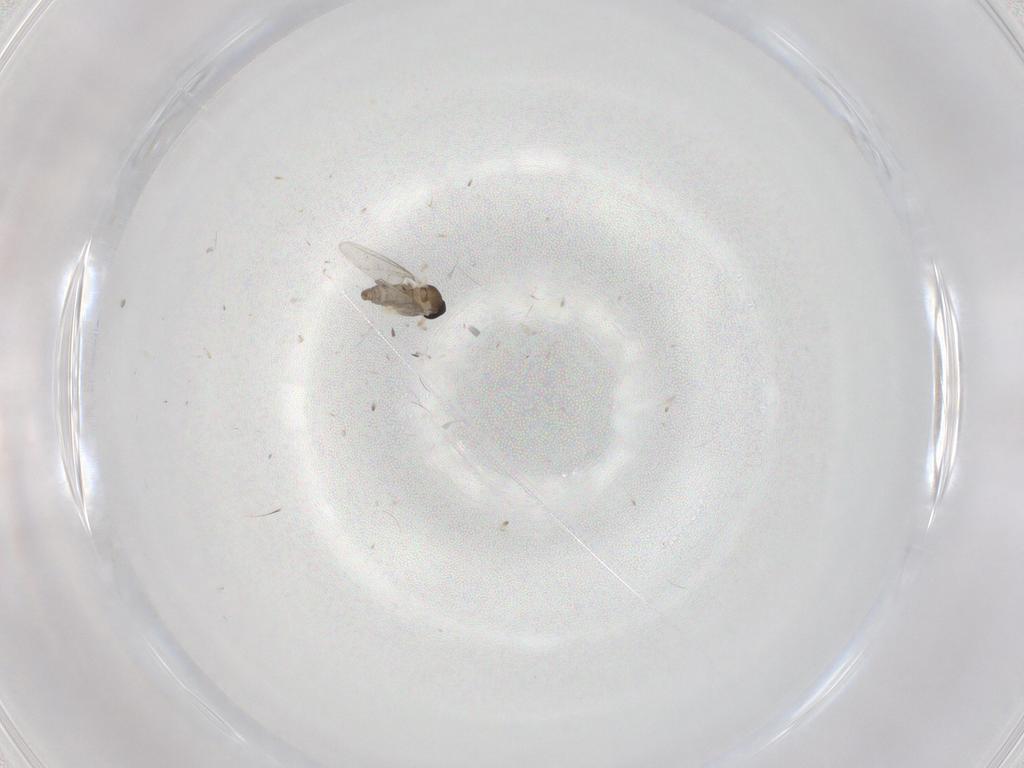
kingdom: Animalia
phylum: Arthropoda
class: Insecta
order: Diptera
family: Cecidomyiidae
